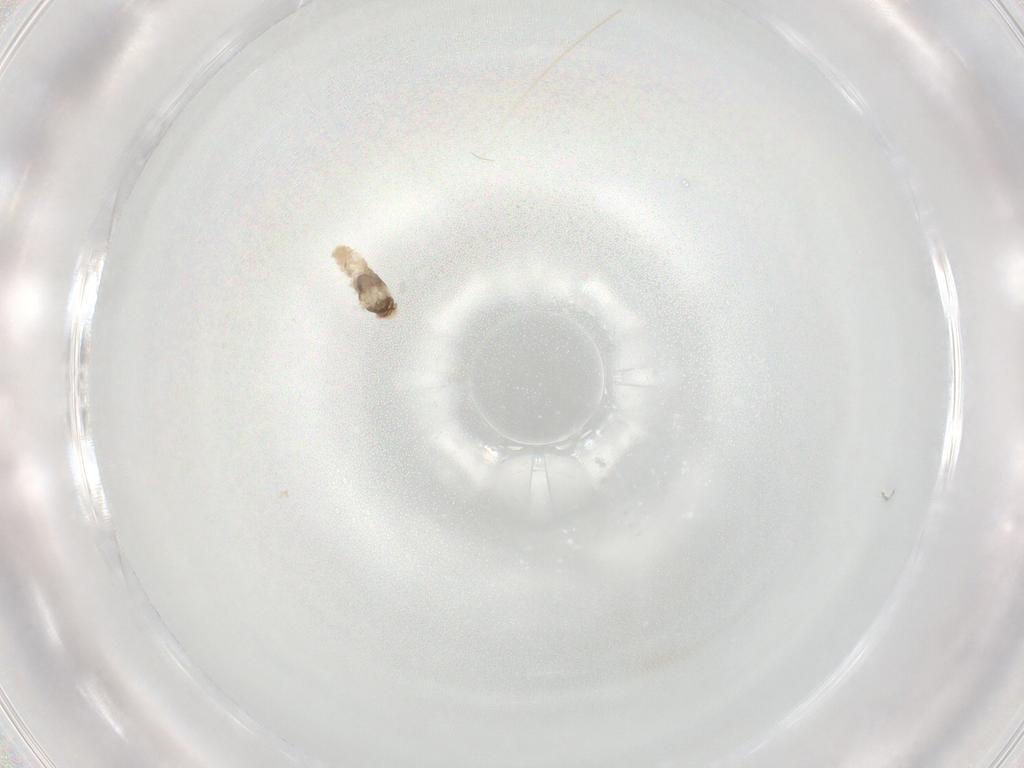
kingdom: Animalia
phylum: Arthropoda
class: Insecta
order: Diptera
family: Cecidomyiidae
